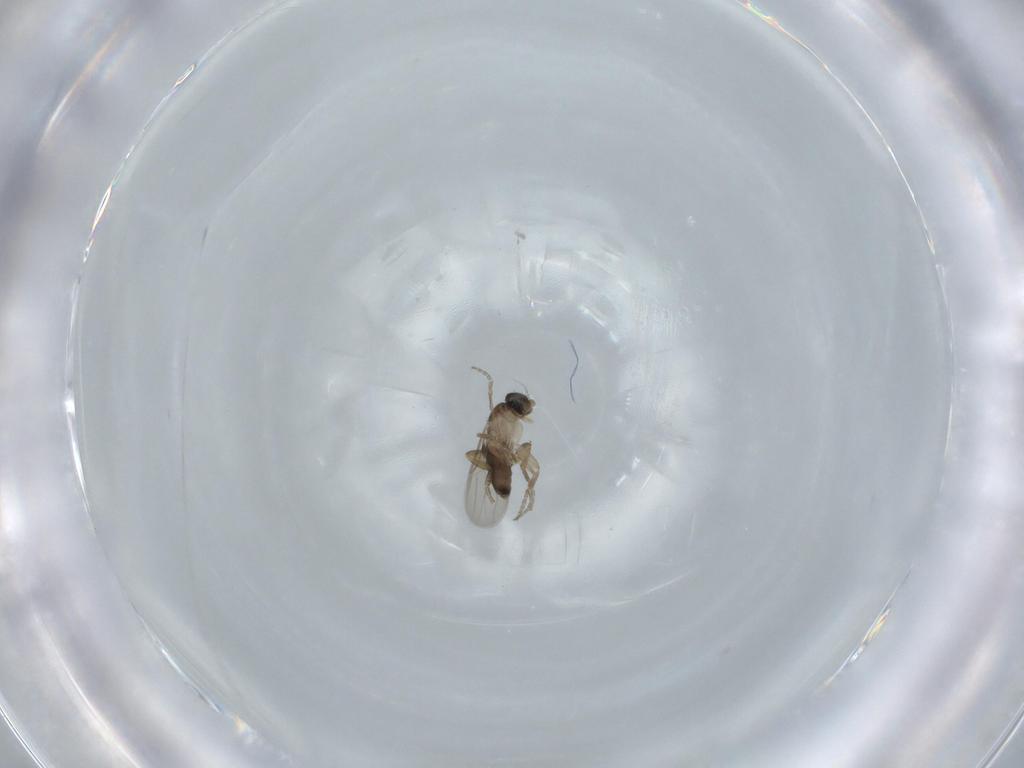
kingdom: Animalia
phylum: Arthropoda
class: Insecta
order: Diptera
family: Phoridae
